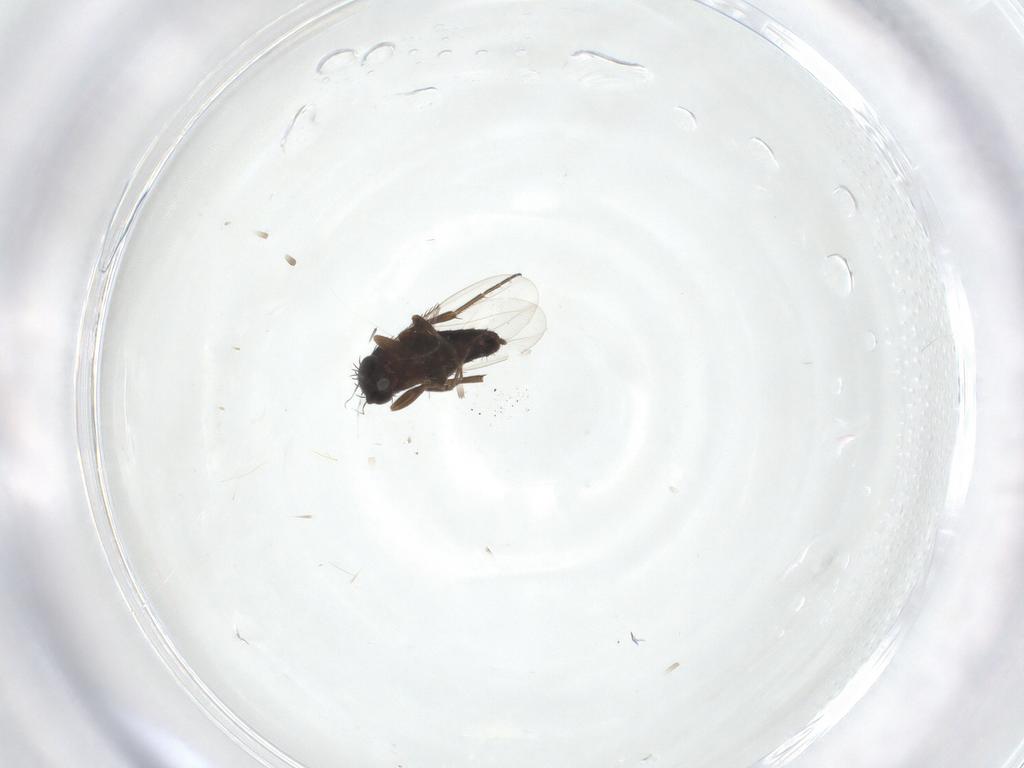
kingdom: Animalia
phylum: Arthropoda
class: Insecta
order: Diptera
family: Phoridae
